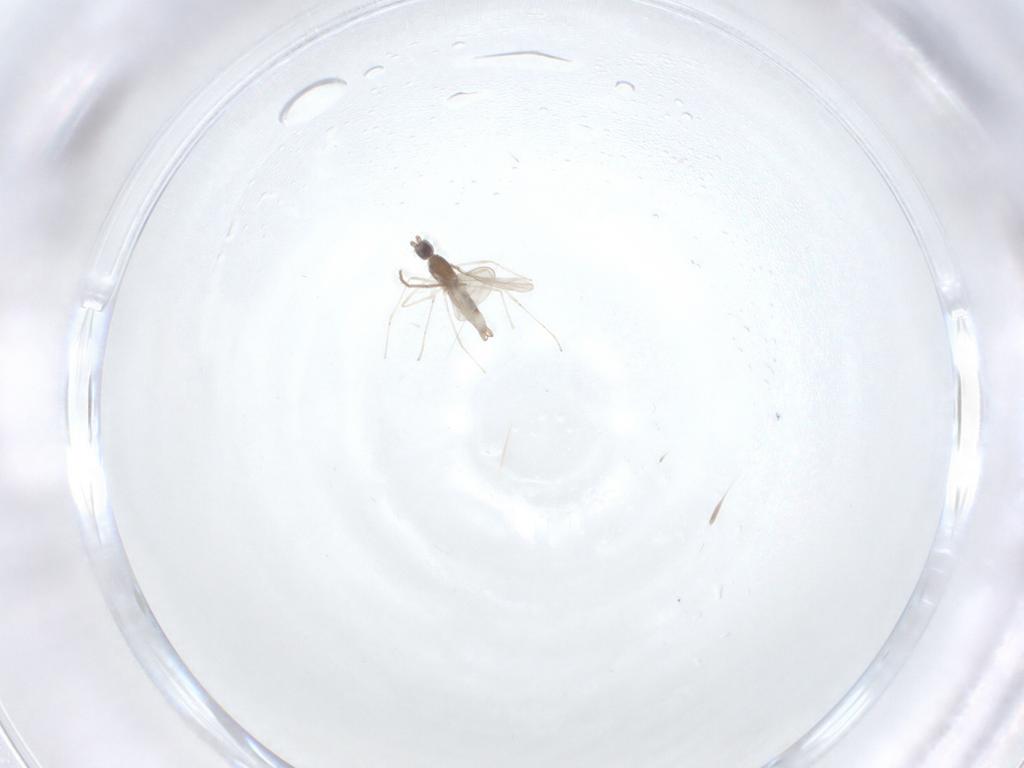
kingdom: Animalia
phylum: Arthropoda
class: Insecta
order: Diptera
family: Cecidomyiidae
